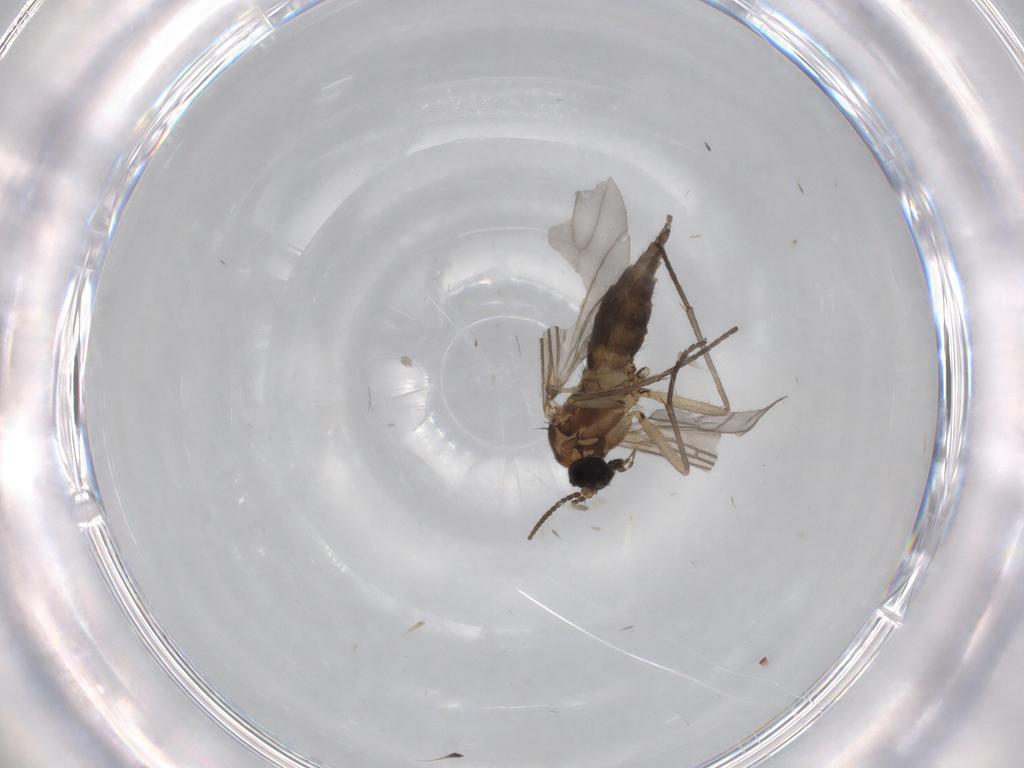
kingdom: Animalia
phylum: Arthropoda
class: Insecta
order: Diptera
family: Sciaridae
